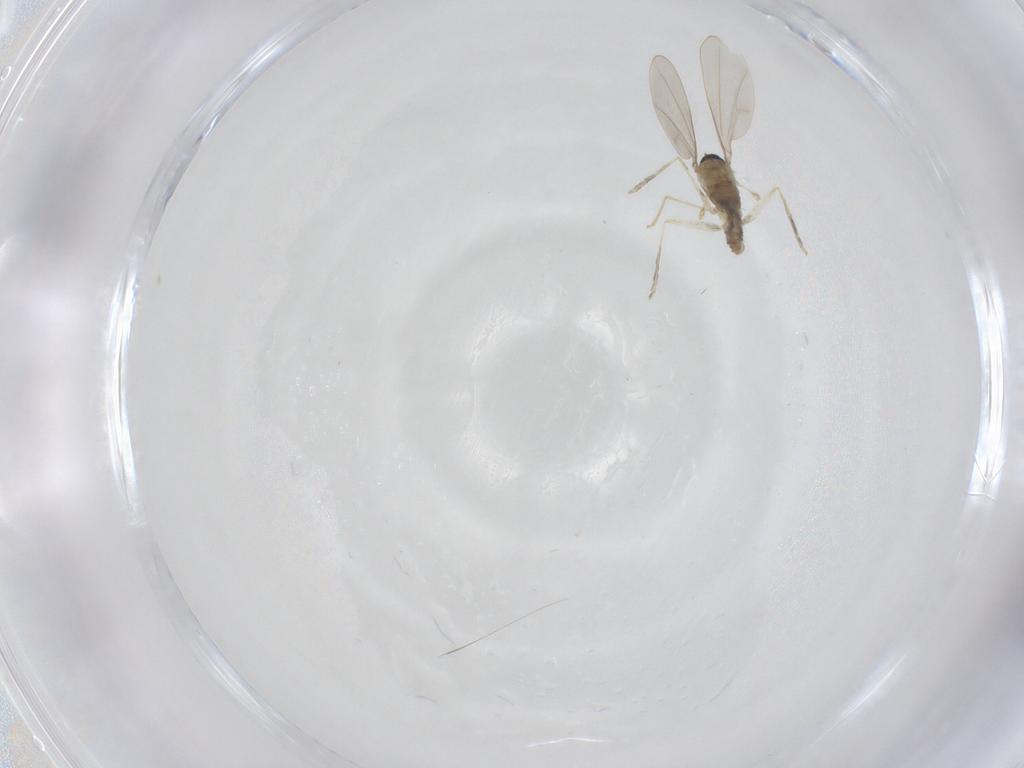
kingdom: Animalia
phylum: Arthropoda
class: Insecta
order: Diptera
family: Cecidomyiidae
